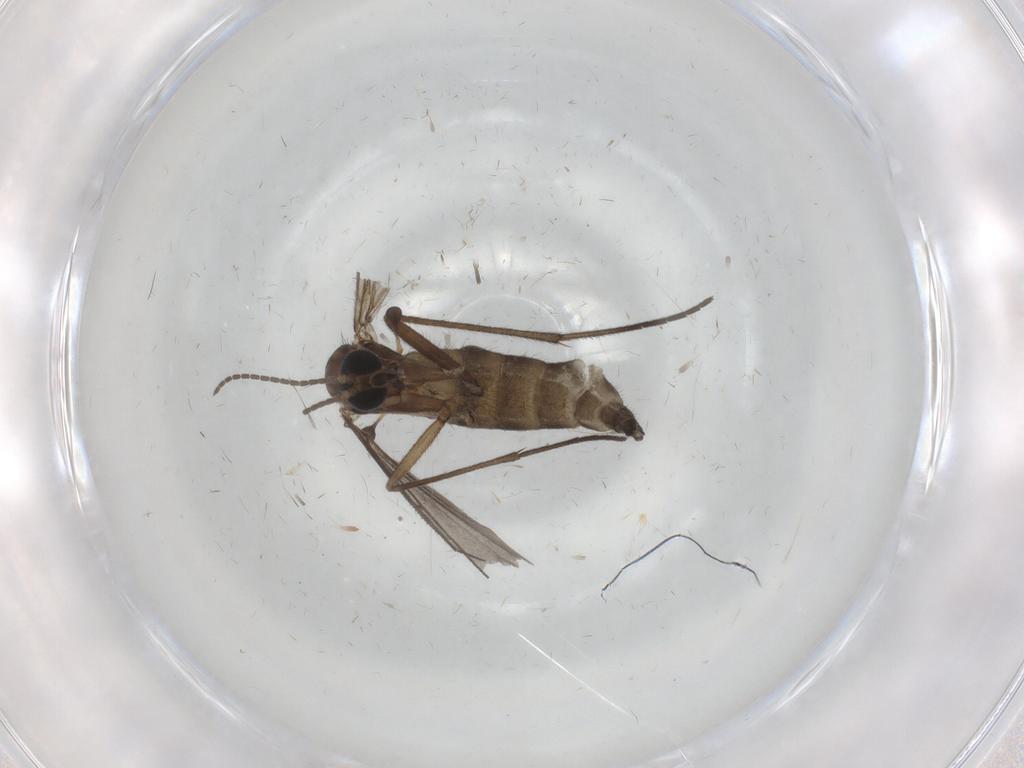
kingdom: Animalia
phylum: Arthropoda
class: Insecta
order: Diptera
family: Sciaridae
